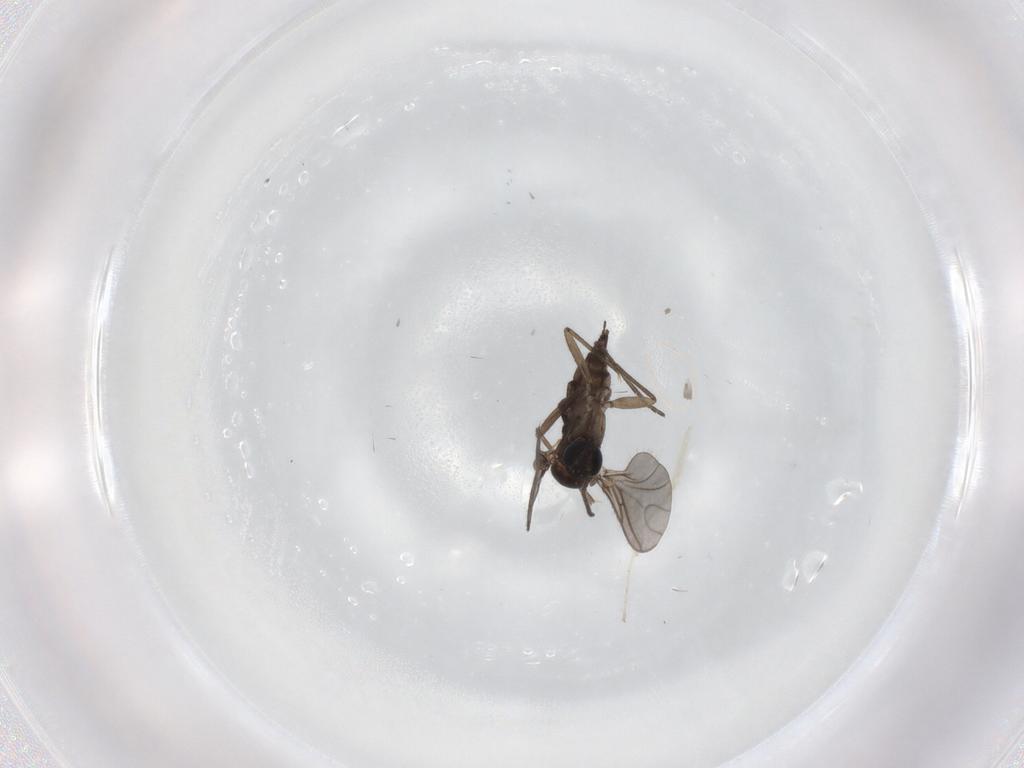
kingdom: Animalia
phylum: Arthropoda
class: Insecta
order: Diptera
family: Sciaridae
